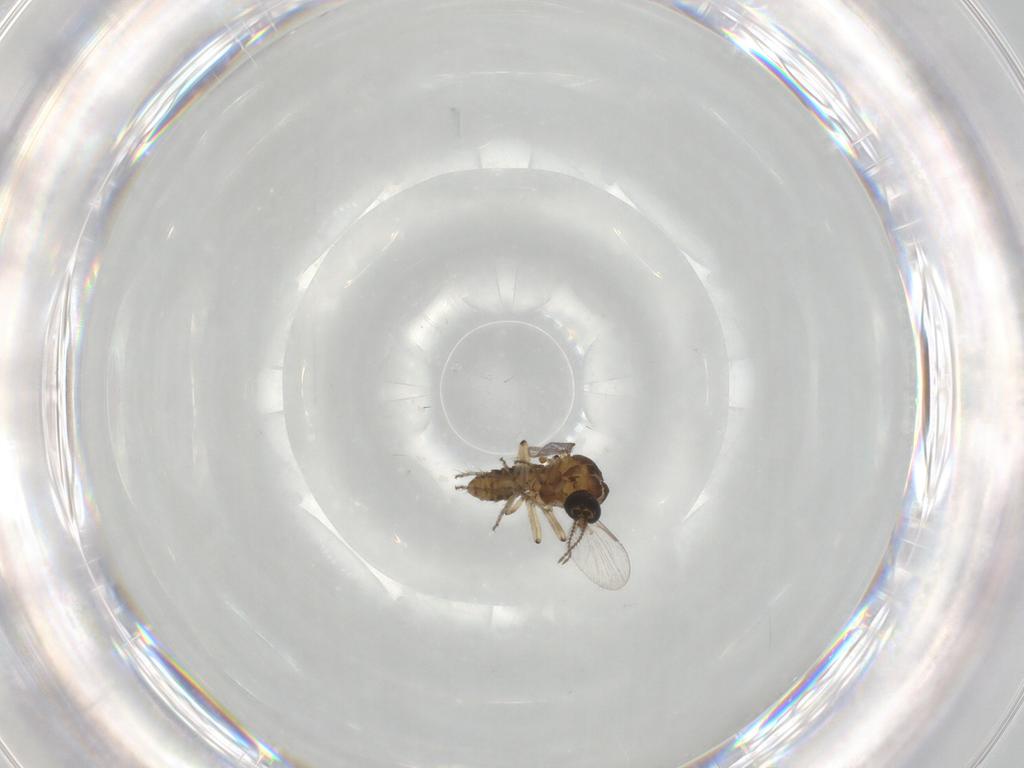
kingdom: Animalia
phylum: Arthropoda
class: Insecta
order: Diptera
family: Ceratopogonidae
